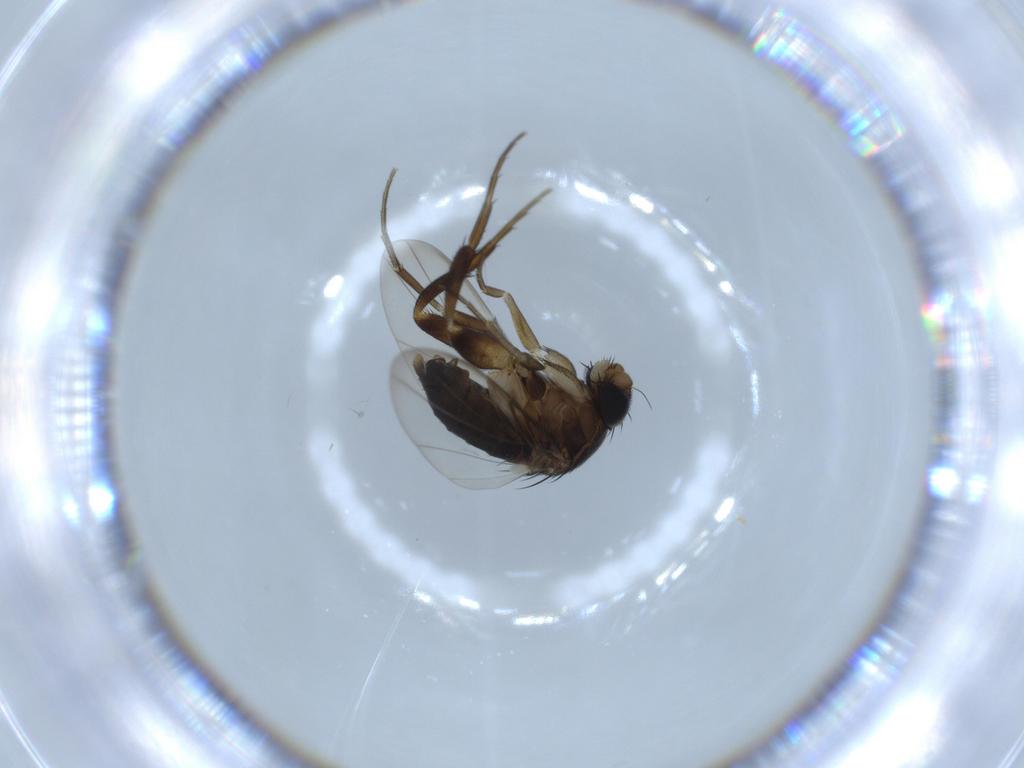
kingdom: Animalia
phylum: Arthropoda
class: Insecta
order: Diptera
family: Phoridae
